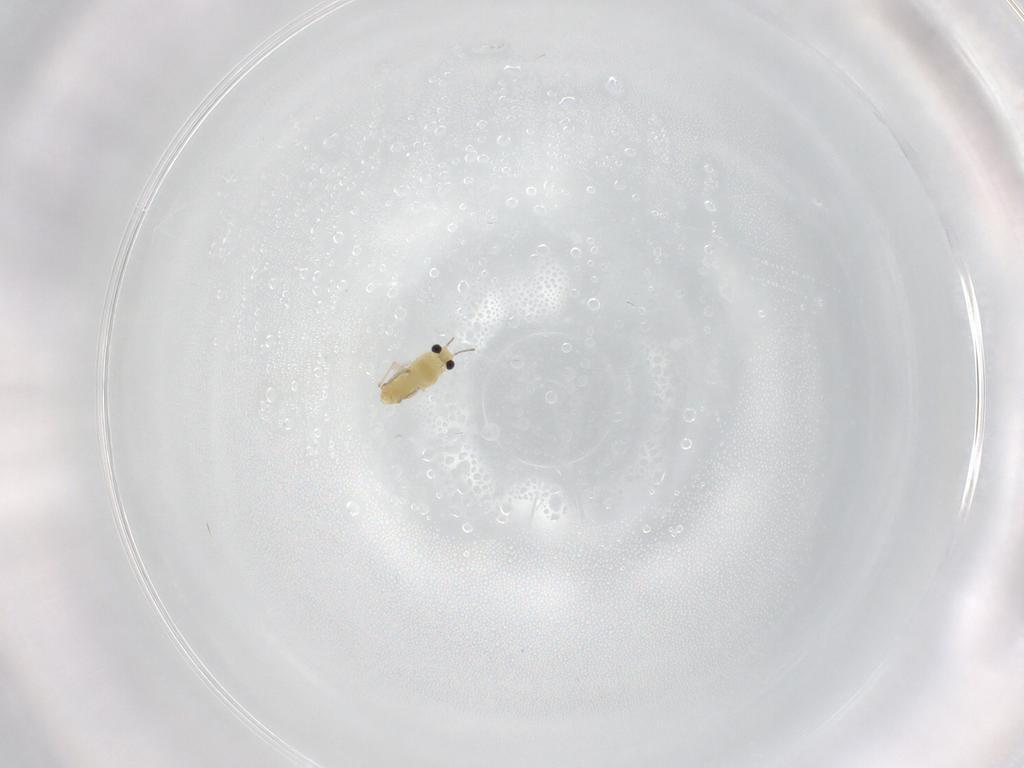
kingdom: Animalia
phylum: Arthropoda
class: Insecta
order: Diptera
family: Chironomidae
